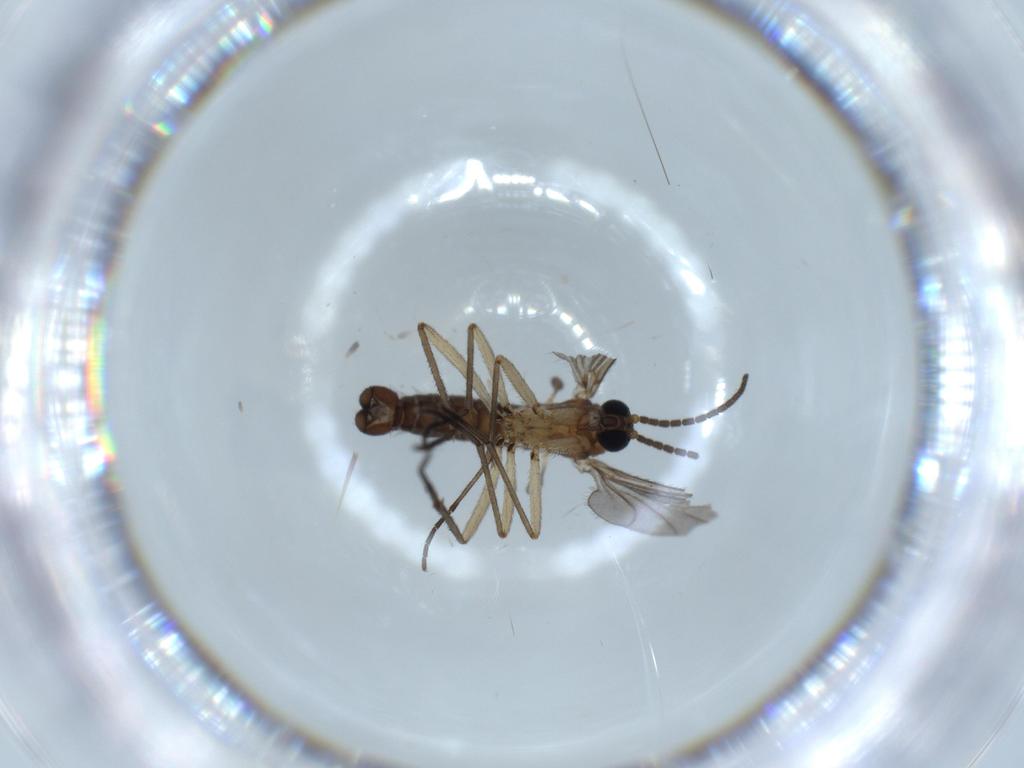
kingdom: Animalia
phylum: Arthropoda
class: Insecta
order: Diptera
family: Sciaridae
